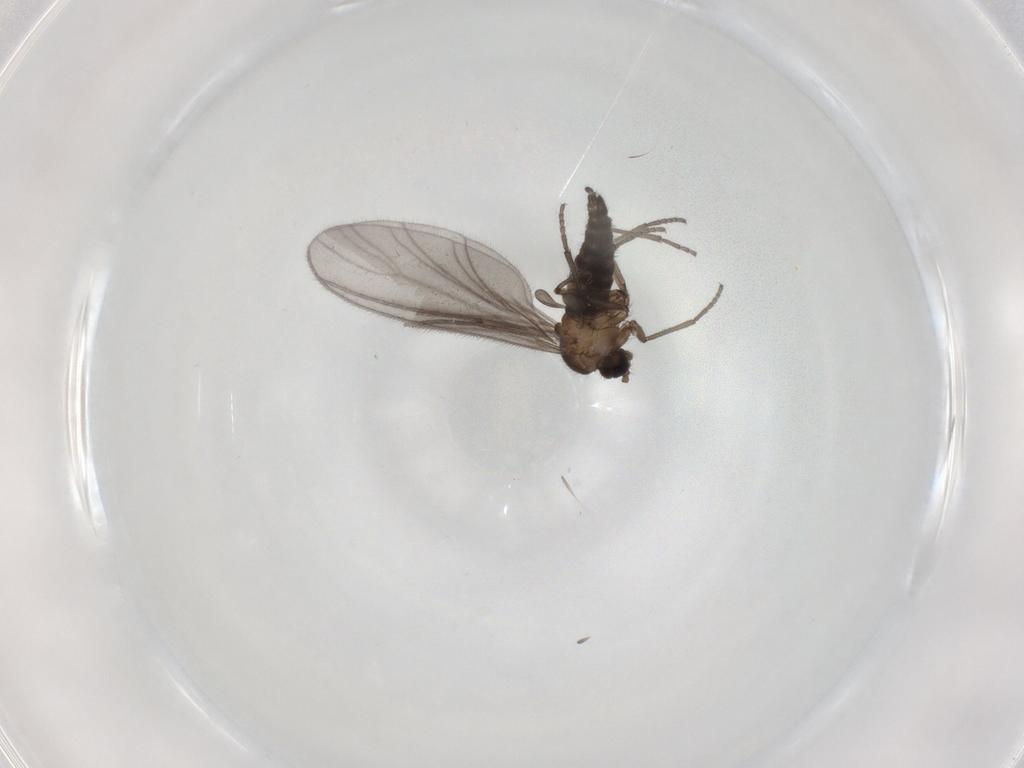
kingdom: Animalia
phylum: Arthropoda
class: Insecta
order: Diptera
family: Sciaridae
